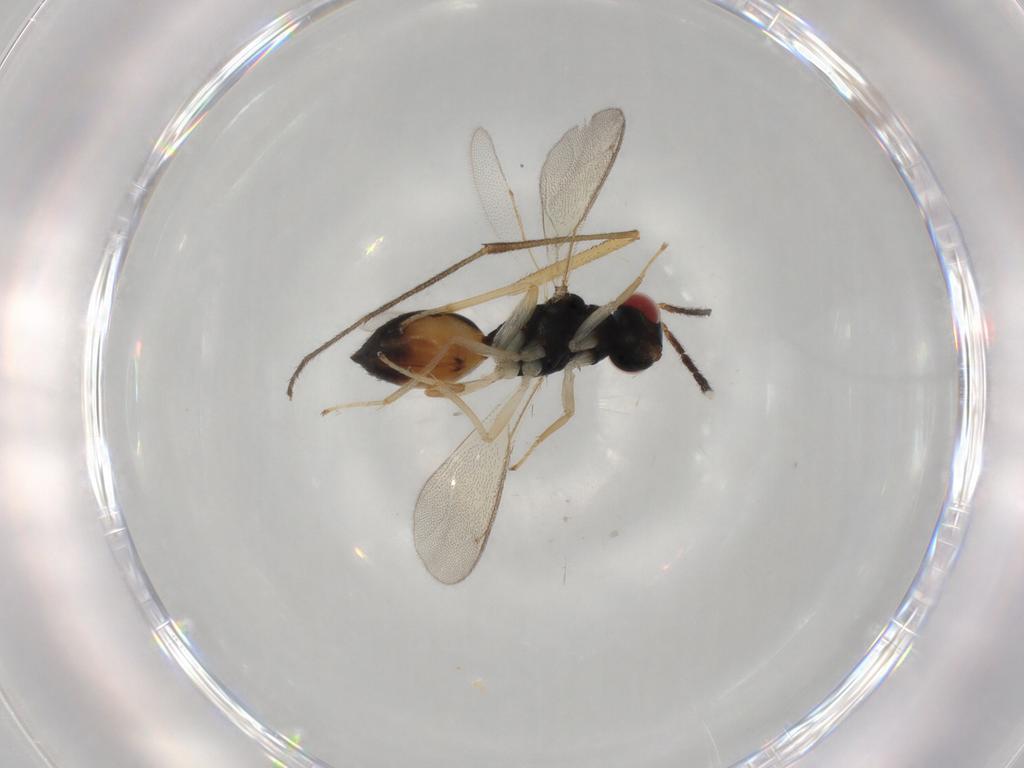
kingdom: Animalia
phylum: Arthropoda
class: Insecta
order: Hymenoptera
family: Eulophidae
